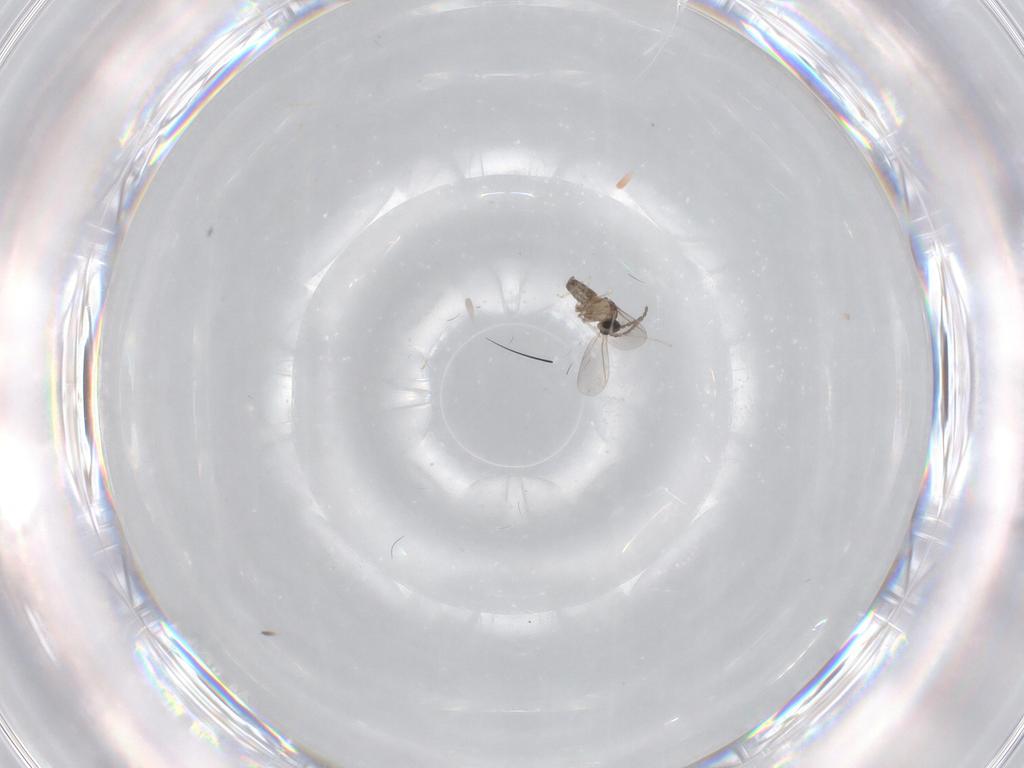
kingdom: Animalia
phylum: Arthropoda
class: Insecta
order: Diptera
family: Cecidomyiidae
